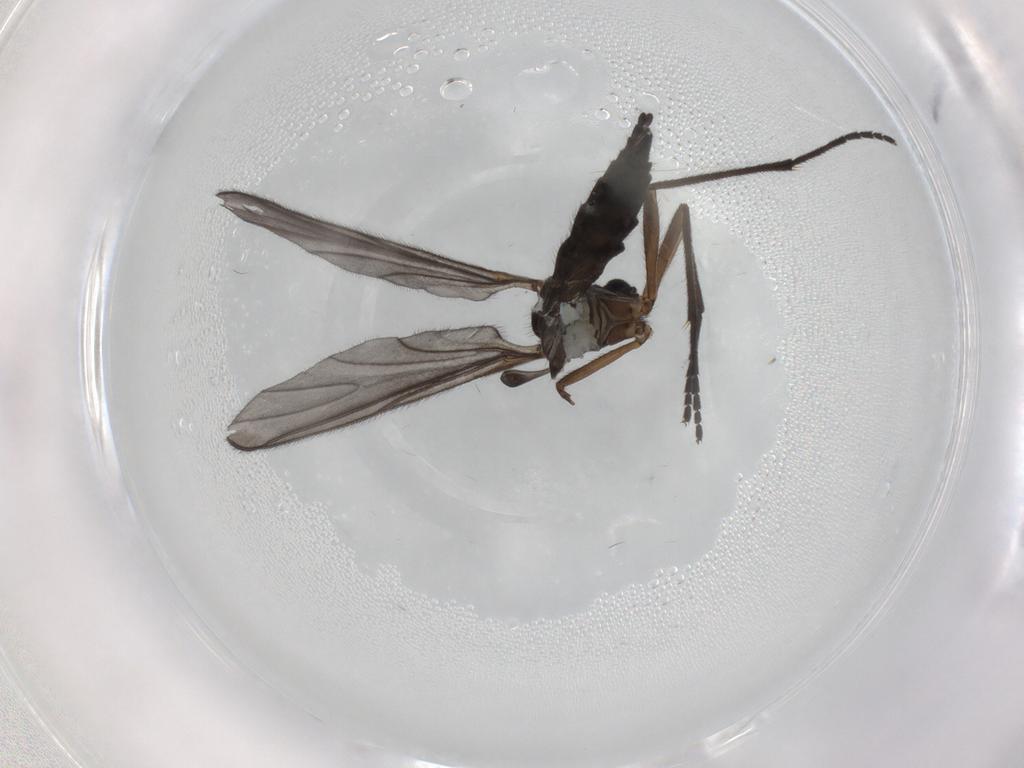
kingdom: Animalia
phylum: Arthropoda
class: Insecta
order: Diptera
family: Sciaridae
